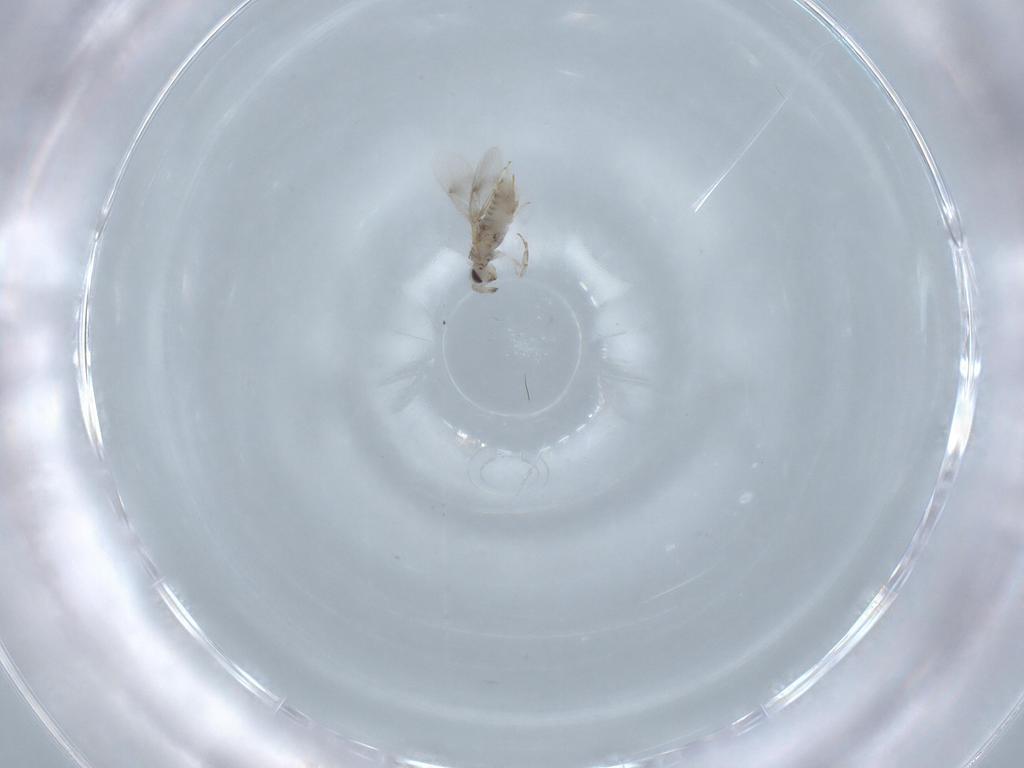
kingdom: Animalia
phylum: Arthropoda
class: Insecta
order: Hymenoptera
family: Aphelinidae
